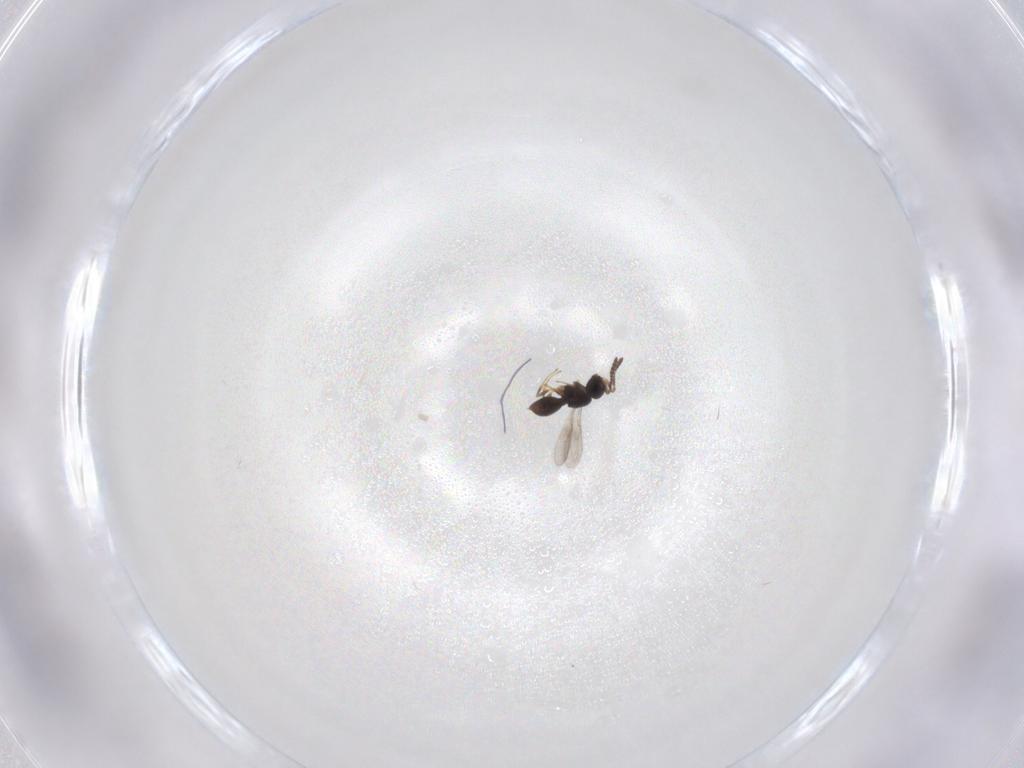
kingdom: Animalia
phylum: Arthropoda
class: Insecta
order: Hymenoptera
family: Scelionidae
